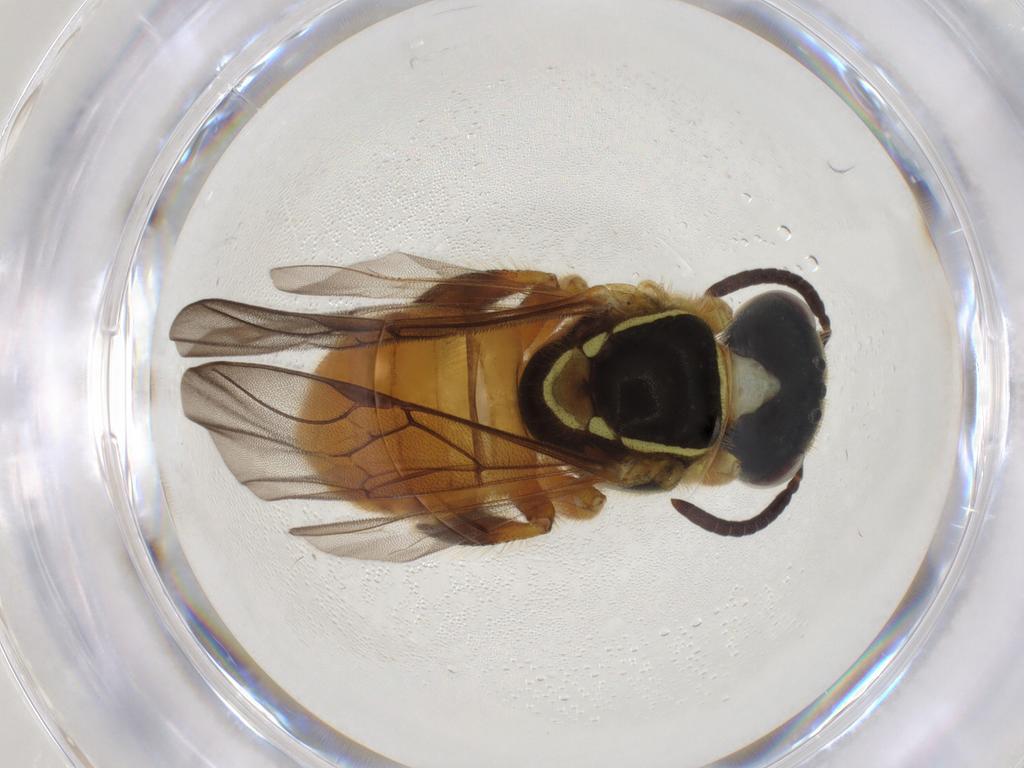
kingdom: Animalia
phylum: Arthropoda
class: Insecta
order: Hymenoptera
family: Apidae
